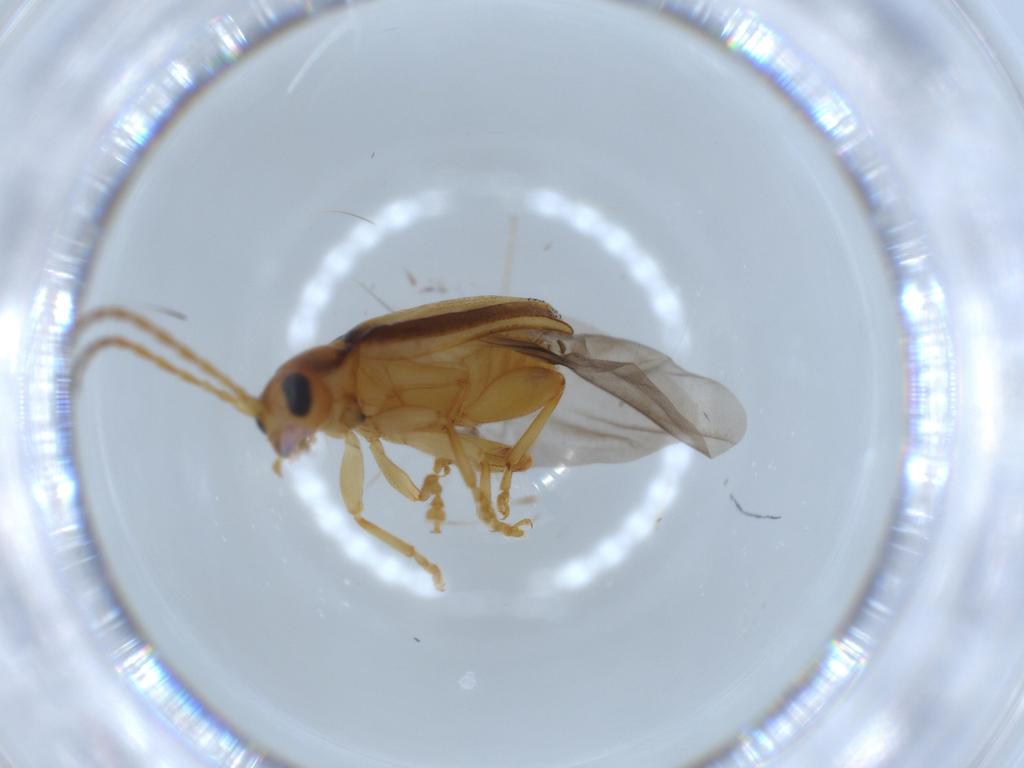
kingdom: Animalia
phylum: Arthropoda
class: Insecta
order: Coleoptera
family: Chrysomelidae
